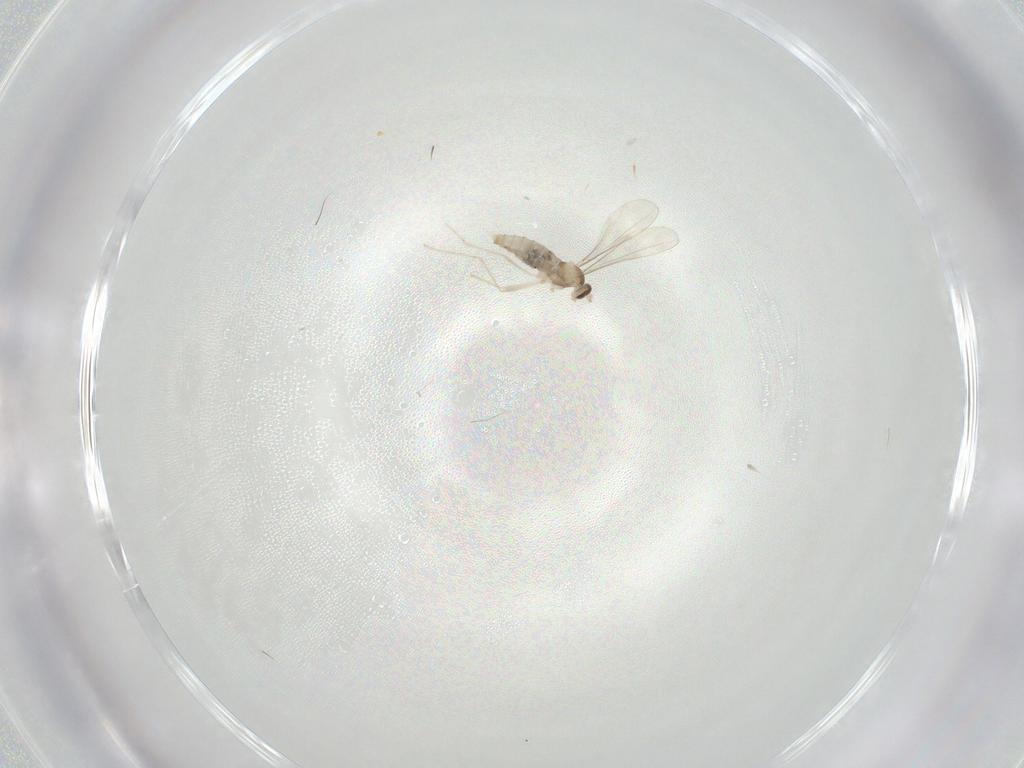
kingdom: Animalia
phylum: Arthropoda
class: Insecta
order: Diptera
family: Cecidomyiidae
